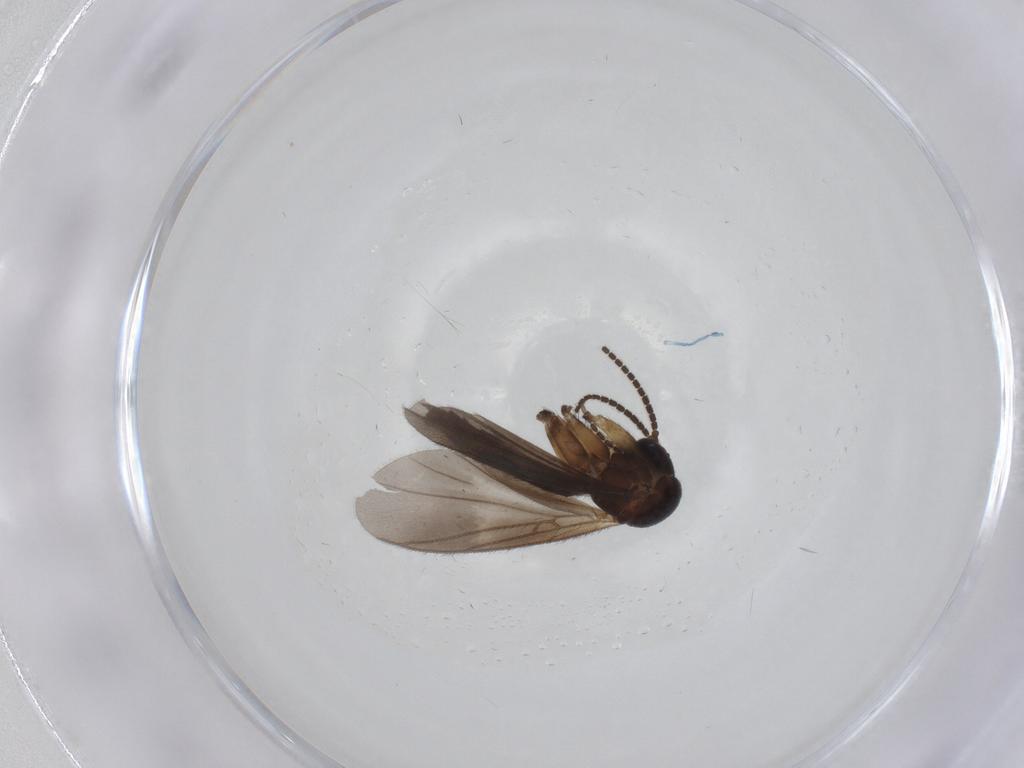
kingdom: Animalia
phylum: Arthropoda
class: Insecta
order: Diptera
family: Mycetophilidae
